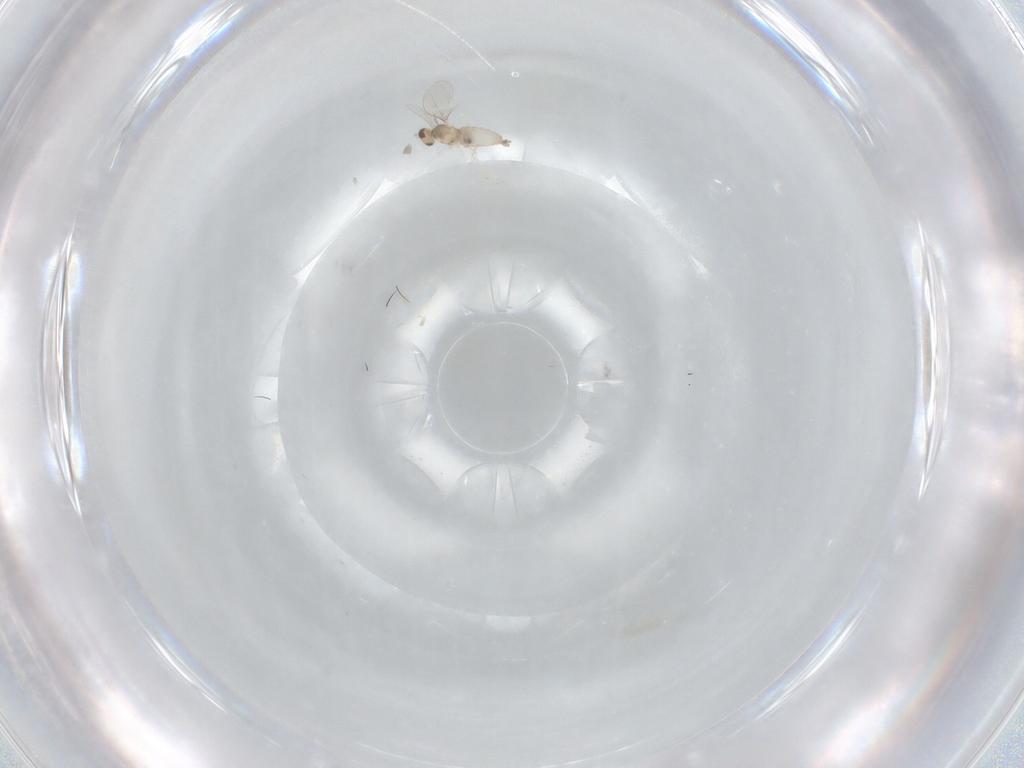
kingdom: Animalia
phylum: Arthropoda
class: Insecta
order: Diptera
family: Cecidomyiidae
